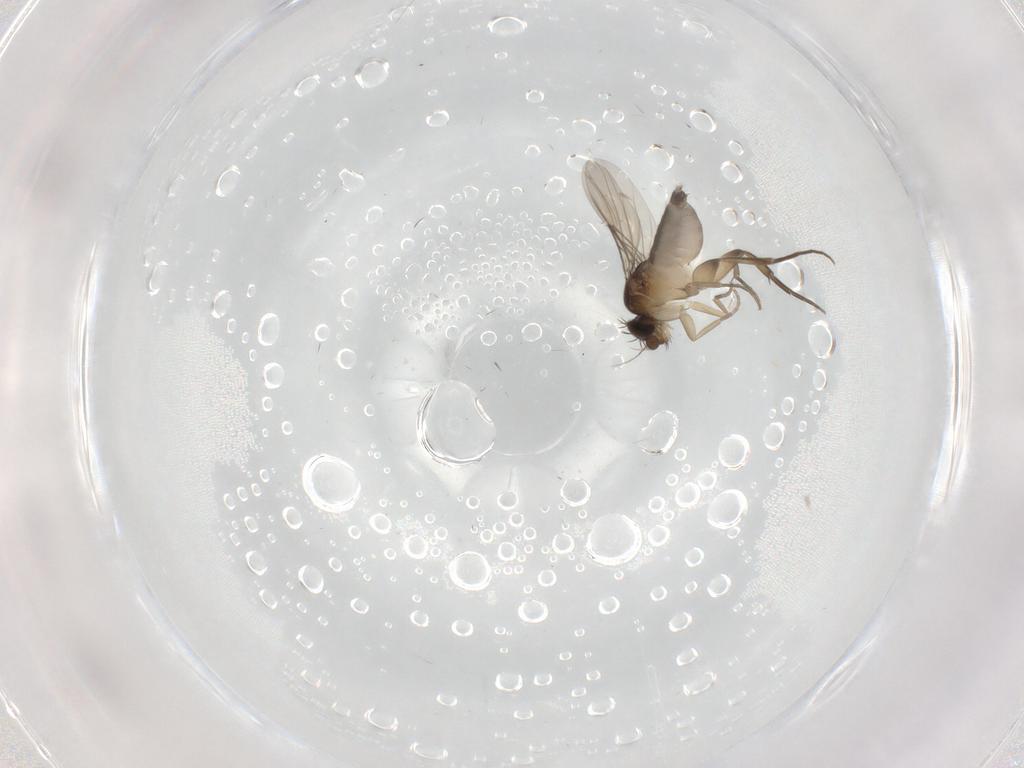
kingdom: Animalia
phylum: Arthropoda
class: Insecta
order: Diptera
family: Phoridae
